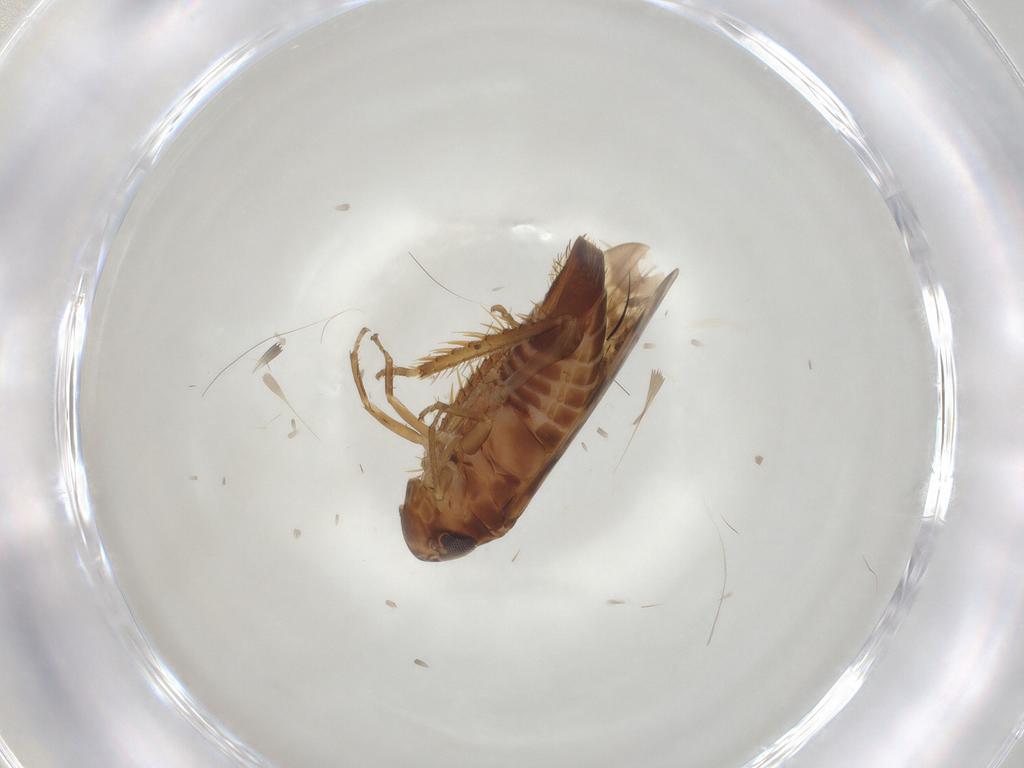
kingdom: Animalia
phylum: Arthropoda
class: Insecta
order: Hemiptera
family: Cicadellidae
